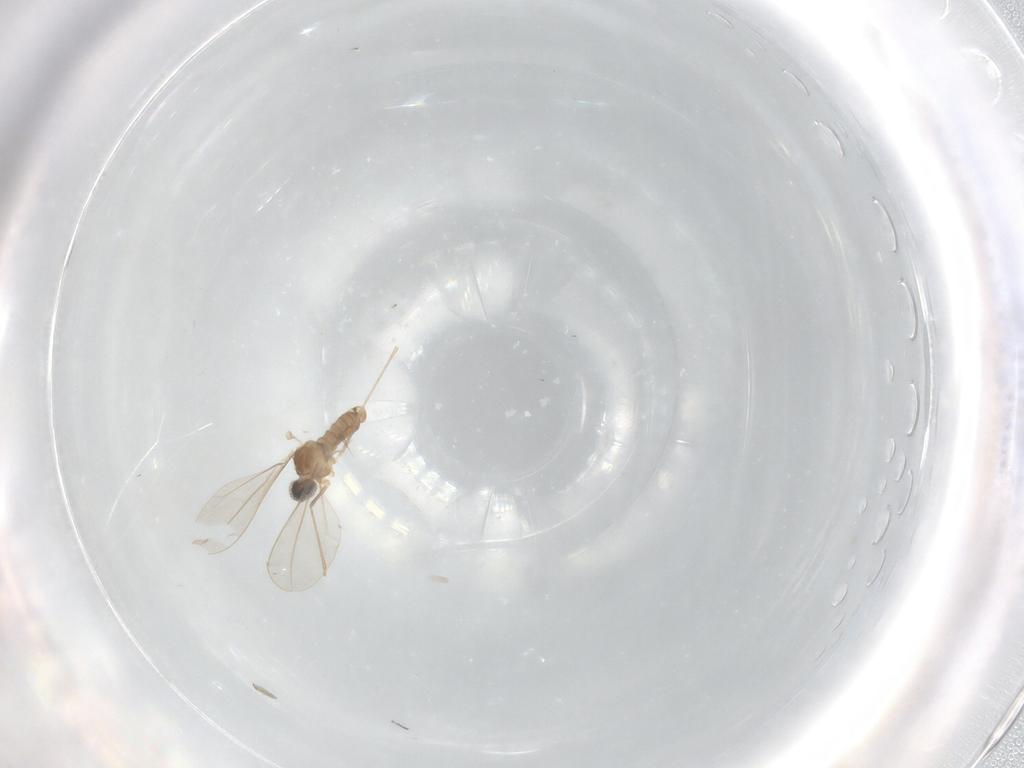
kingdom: Animalia
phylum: Arthropoda
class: Insecta
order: Diptera
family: Cecidomyiidae
